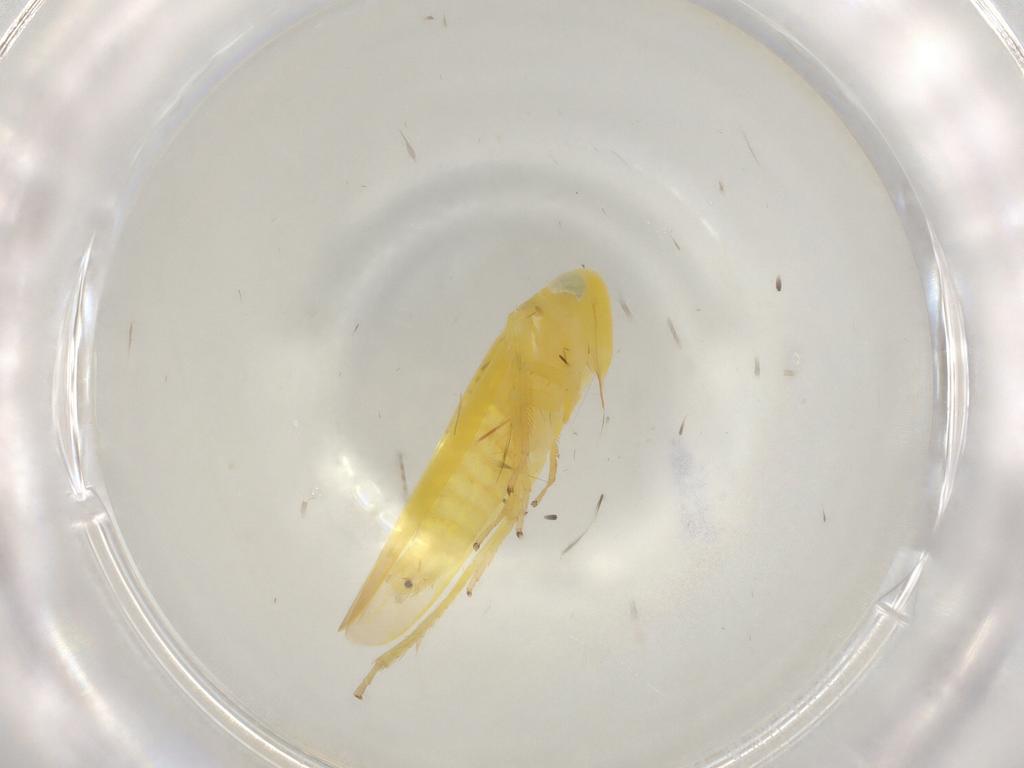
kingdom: Animalia
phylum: Arthropoda
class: Insecta
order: Hemiptera
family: Cicadellidae
